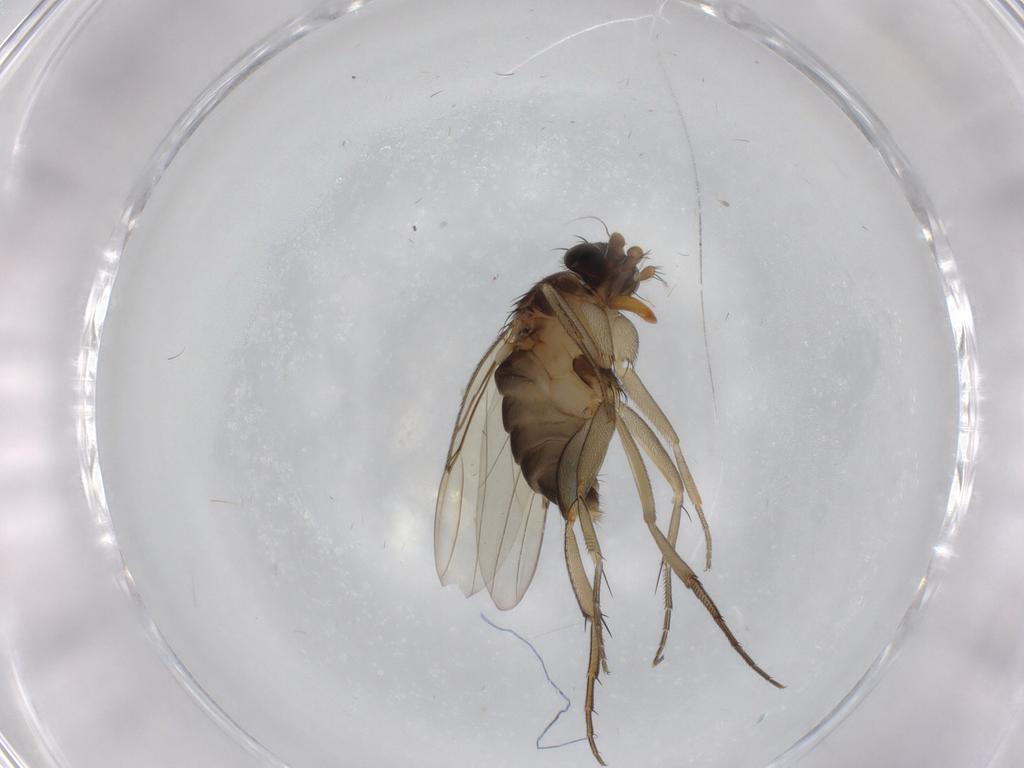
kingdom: Animalia
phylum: Arthropoda
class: Insecta
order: Diptera
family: Phoridae
